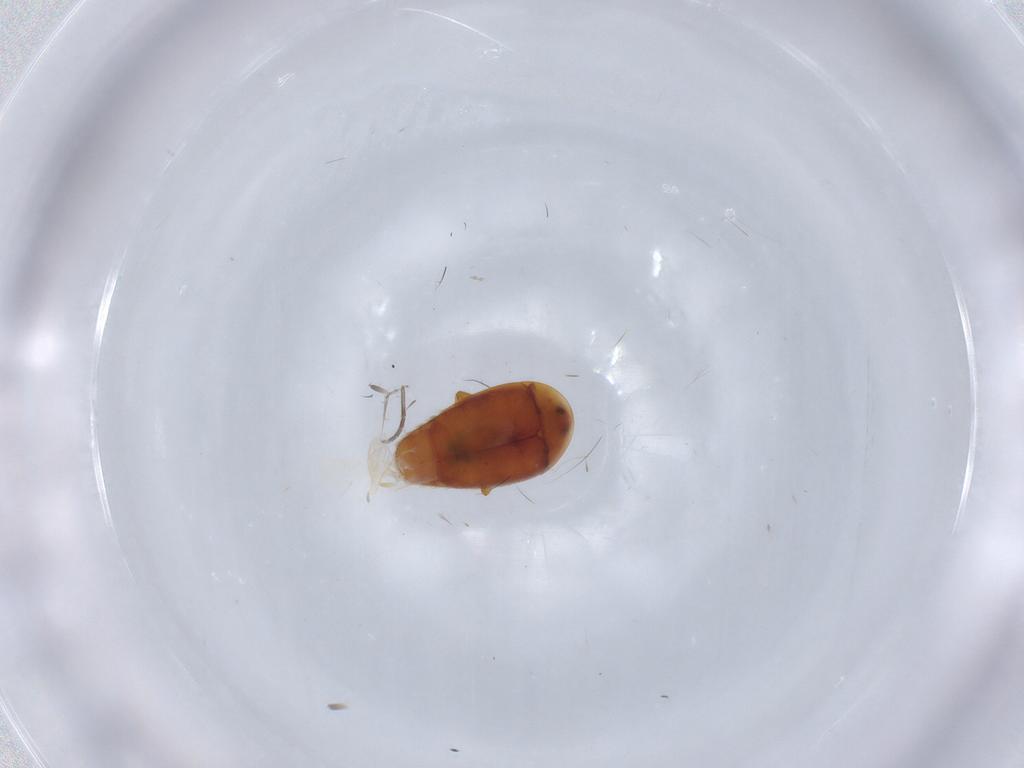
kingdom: Animalia
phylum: Arthropoda
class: Insecta
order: Coleoptera
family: Corylophidae
